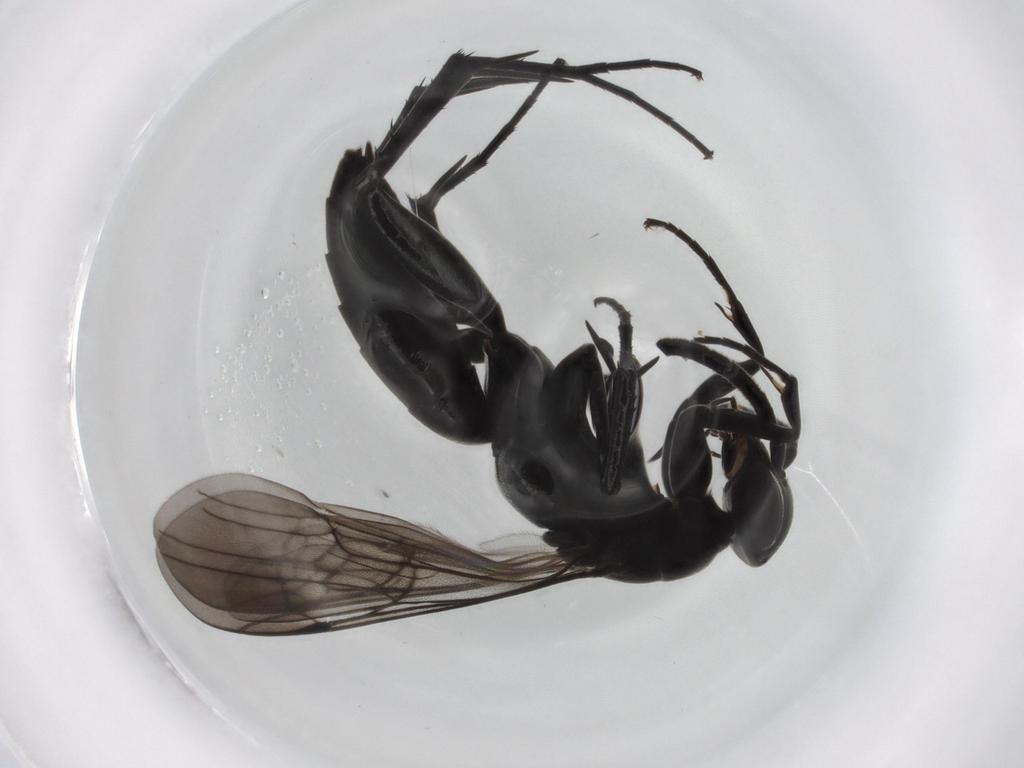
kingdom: Animalia
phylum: Arthropoda
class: Insecta
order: Hymenoptera
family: Pompilidae
